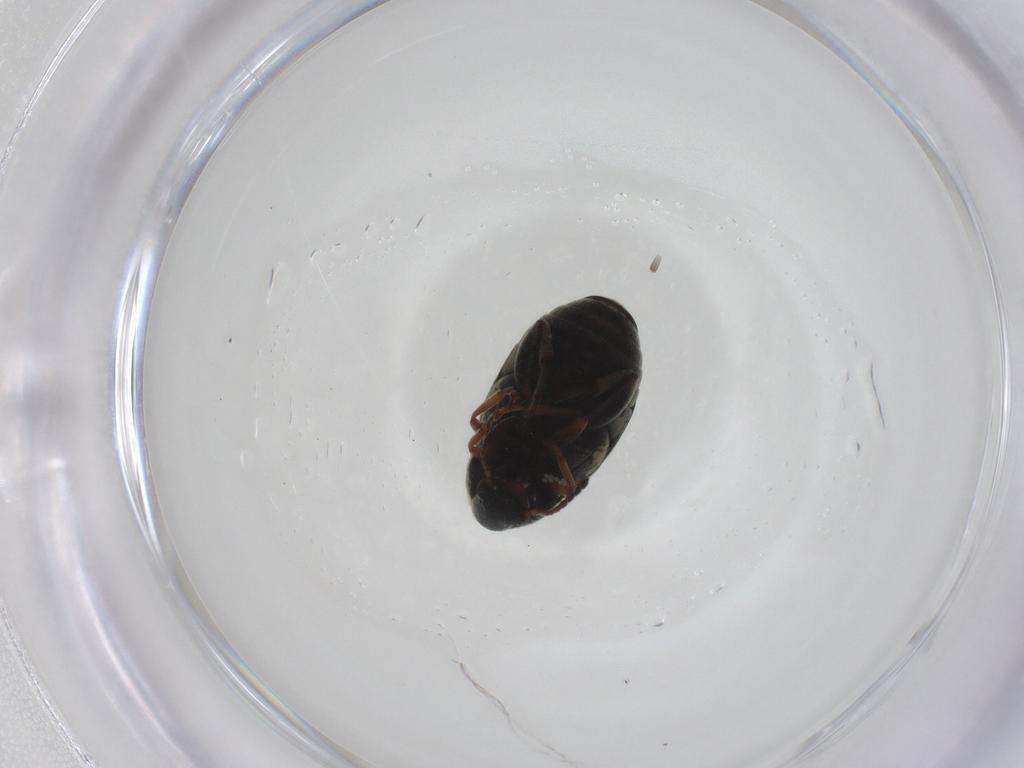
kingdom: Animalia
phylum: Arthropoda
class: Insecta
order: Coleoptera
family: Chrysomelidae
